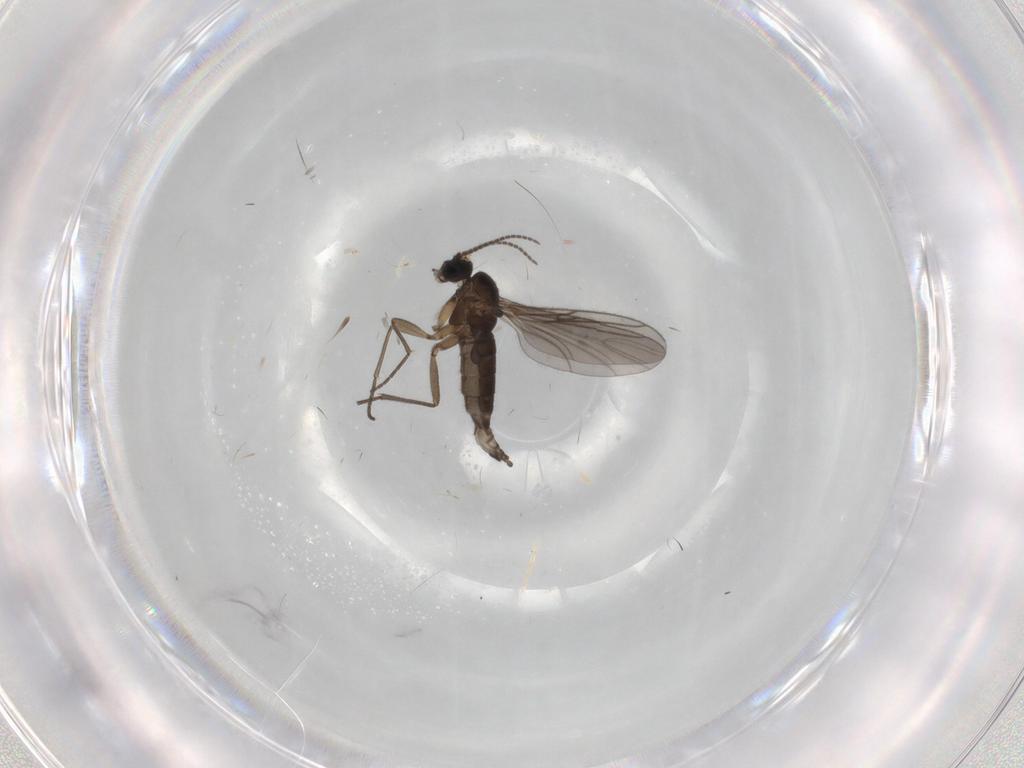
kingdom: Animalia
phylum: Arthropoda
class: Insecta
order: Diptera
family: Sciaridae
